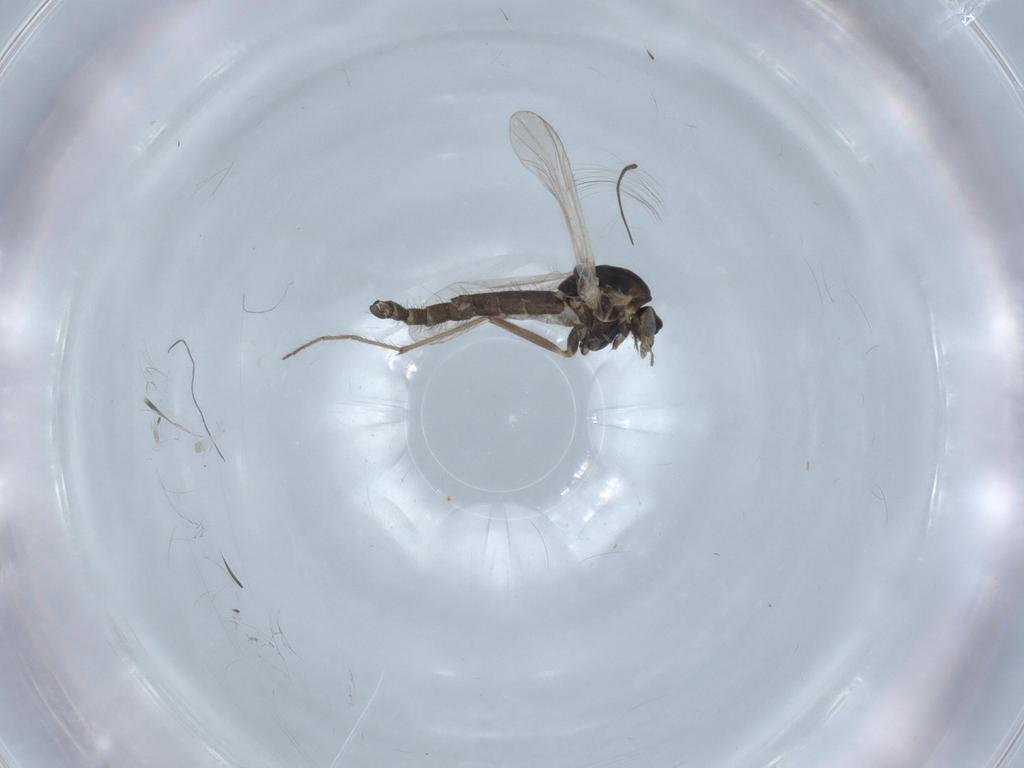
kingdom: Animalia
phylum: Arthropoda
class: Insecta
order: Diptera
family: Chironomidae
